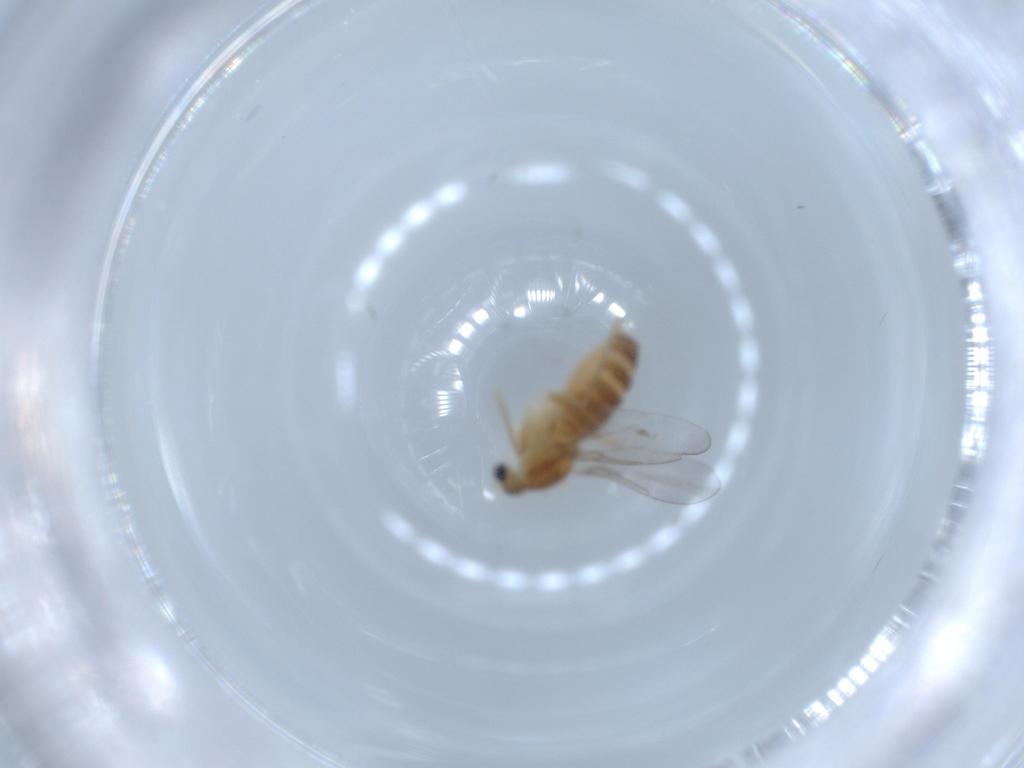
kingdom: Animalia
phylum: Arthropoda
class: Insecta
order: Diptera
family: Cecidomyiidae
